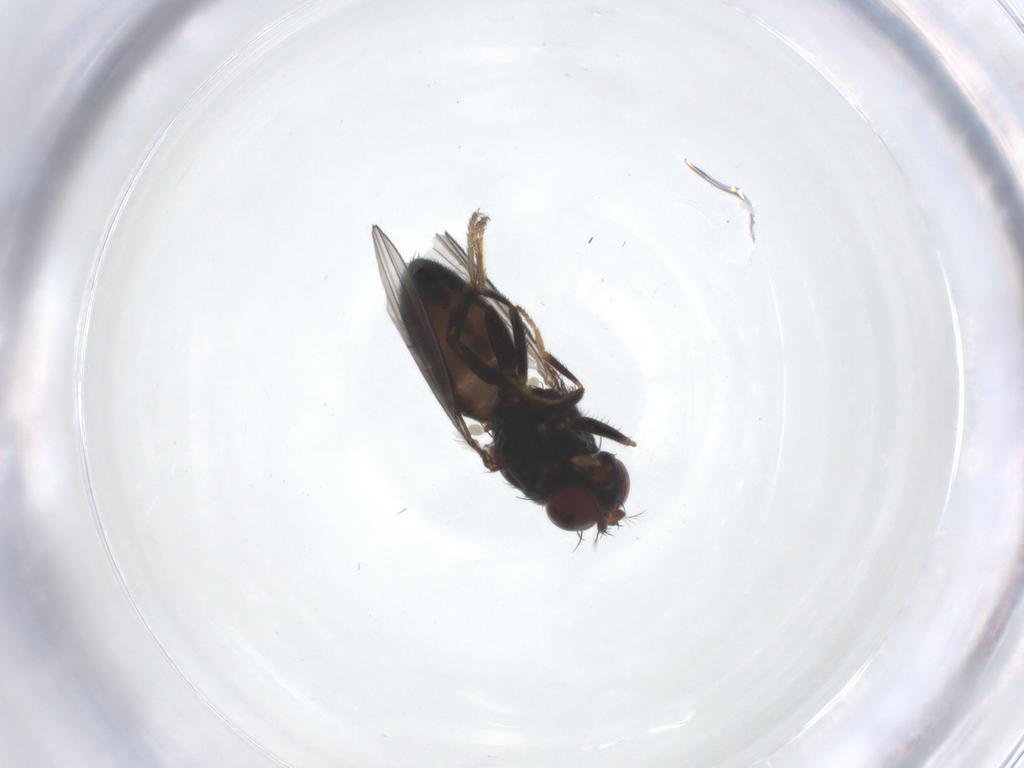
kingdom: Animalia
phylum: Arthropoda
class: Insecta
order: Diptera
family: Ephydridae
